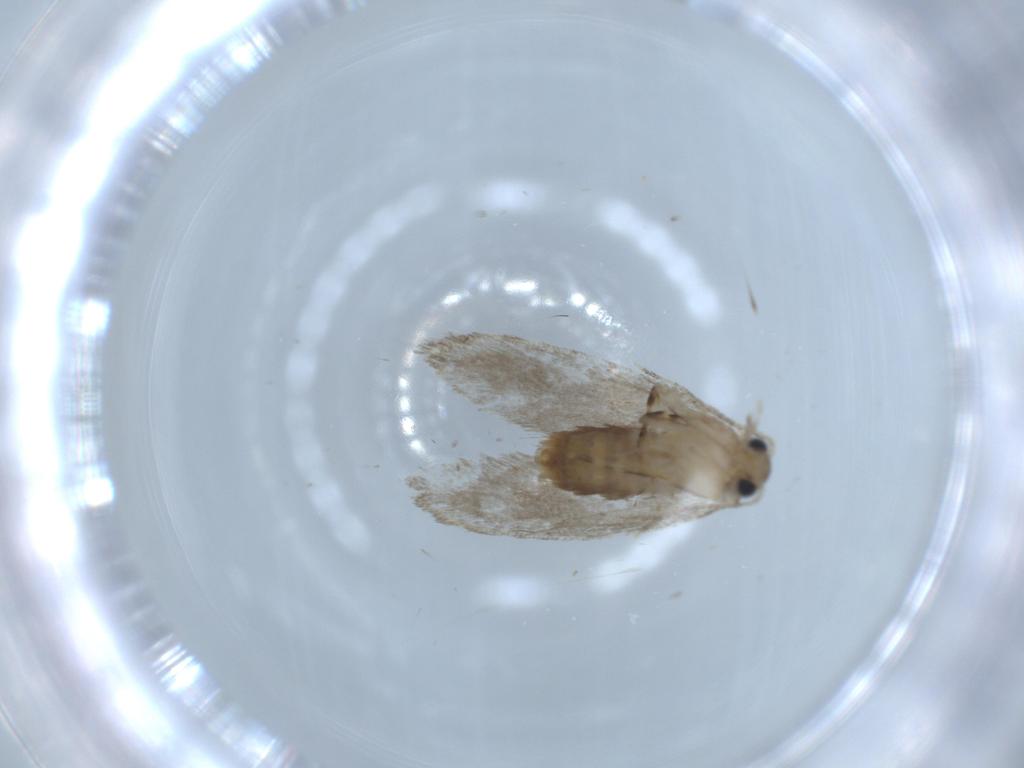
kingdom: Animalia
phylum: Arthropoda
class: Insecta
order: Lepidoptera
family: Tineidae
